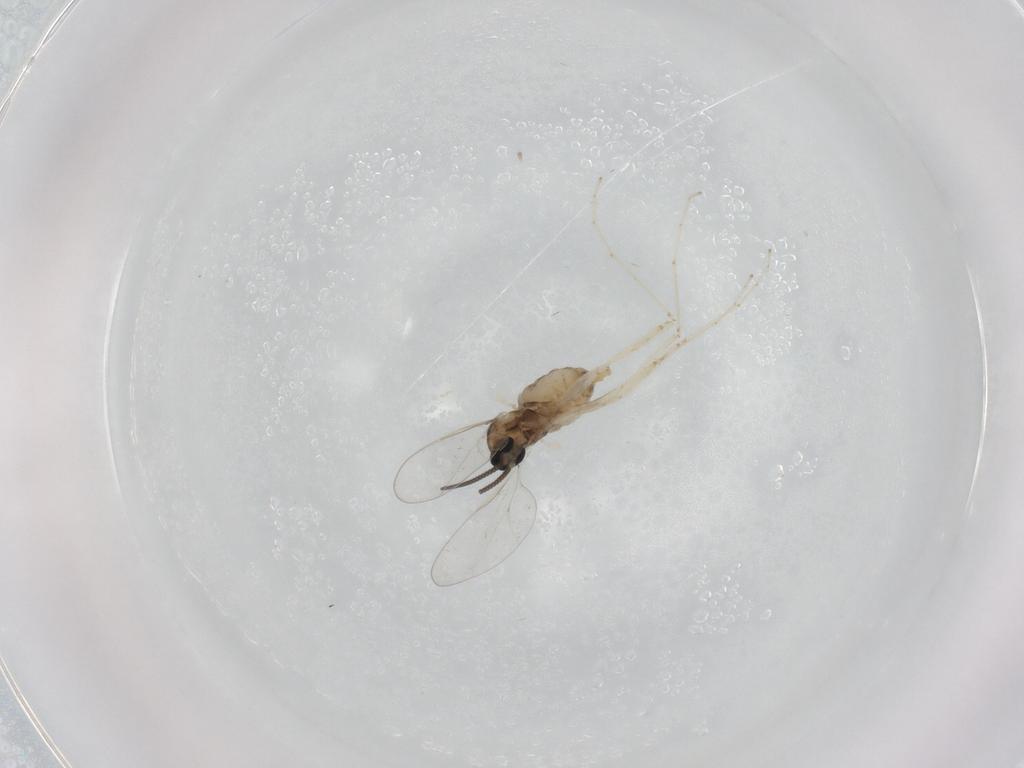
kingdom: Animalia
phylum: Arthropoda
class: Insecta
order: Diptera
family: Cecidomyiidae
